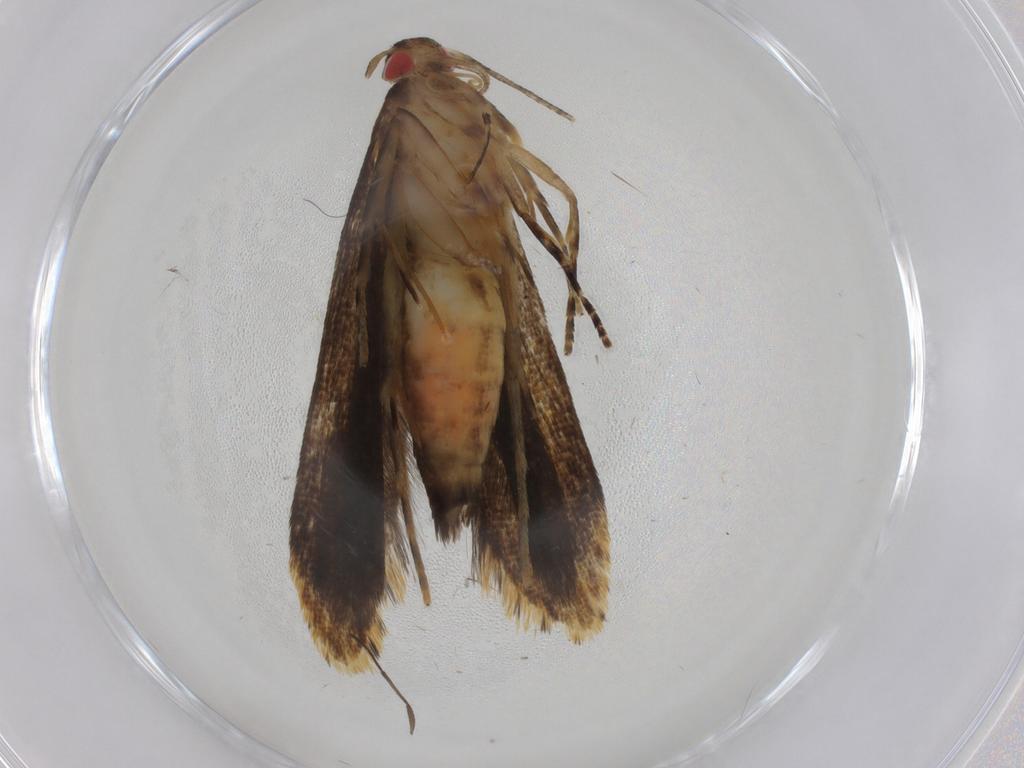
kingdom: Animalia
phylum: Arthropoda
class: Insecta
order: Lepidoptera
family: Gelechiidae
